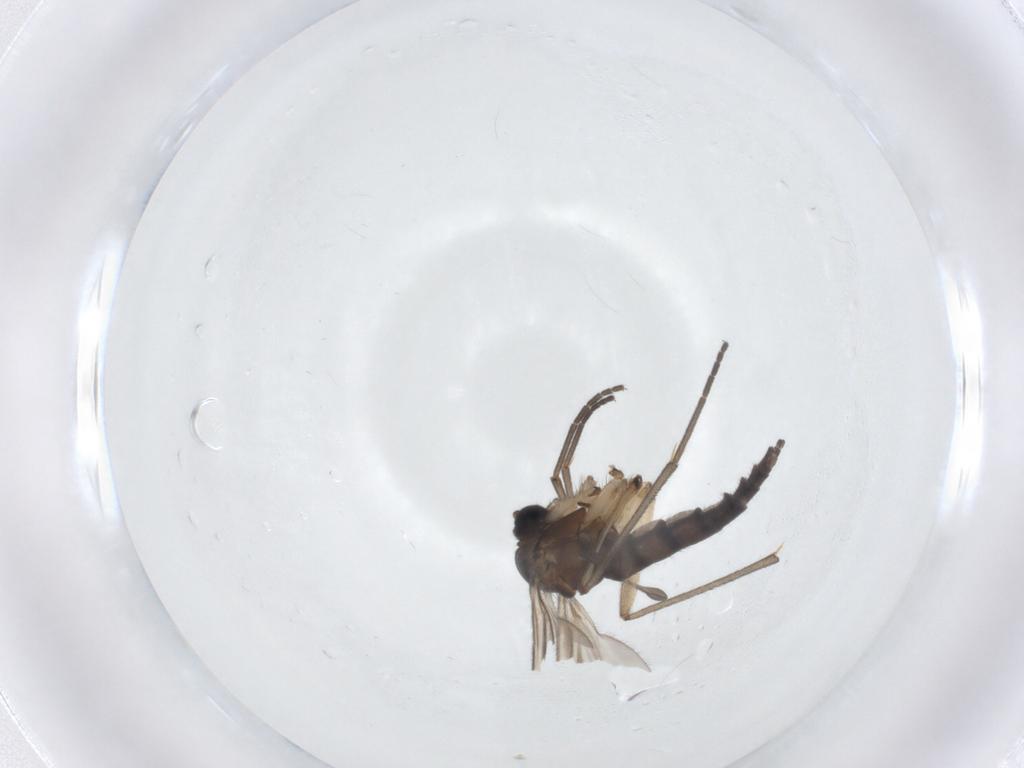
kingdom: Animalia
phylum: Arthropoda
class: Insecta
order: Diptera
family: Sciaridae
